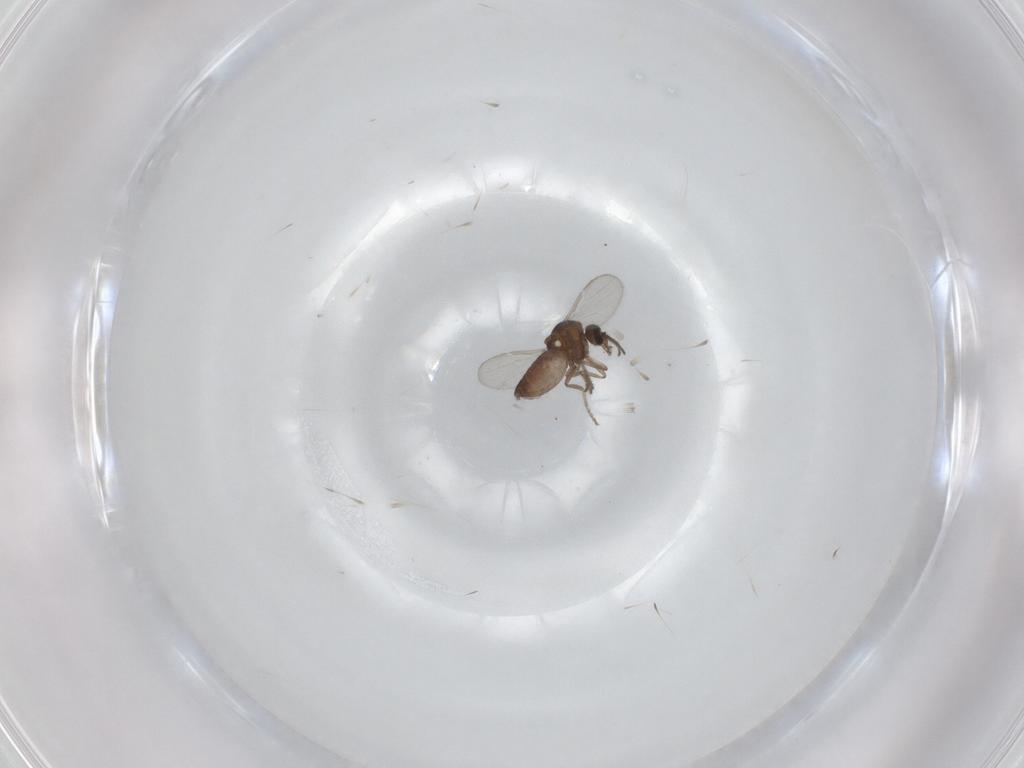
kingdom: Animalia
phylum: Arthropoda
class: Insecta
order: Diptera
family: Ceratopogonidae
